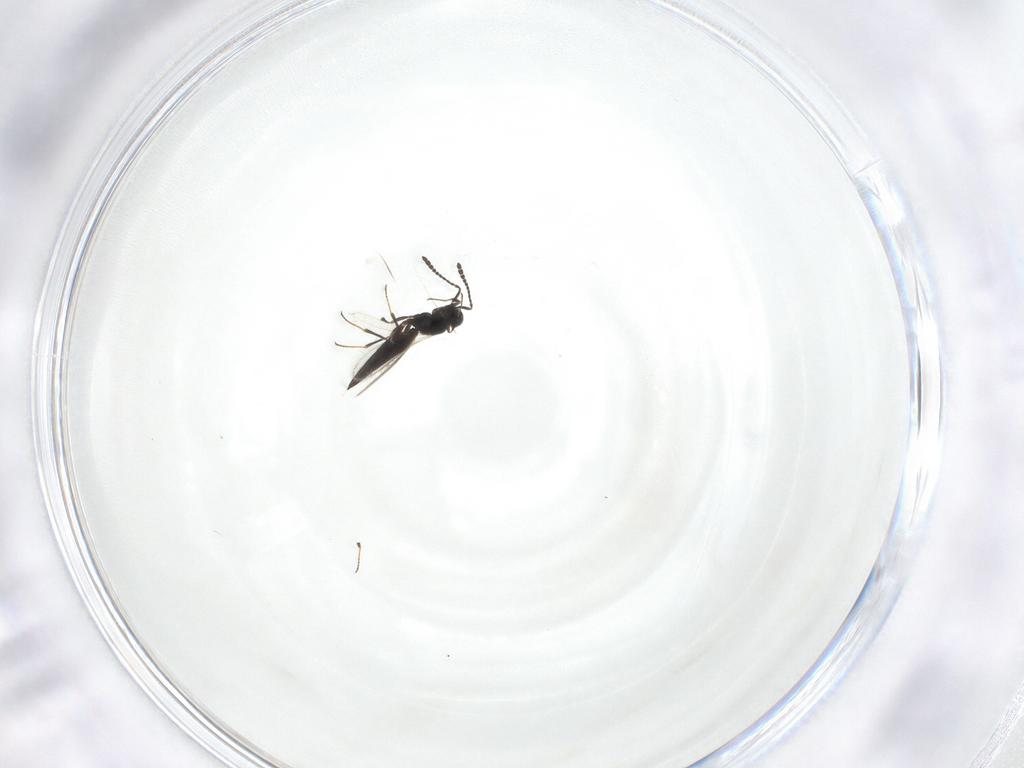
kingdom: Animalia
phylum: Arthropoda
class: Insecta
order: Hymenoptera
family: Scelionidae
